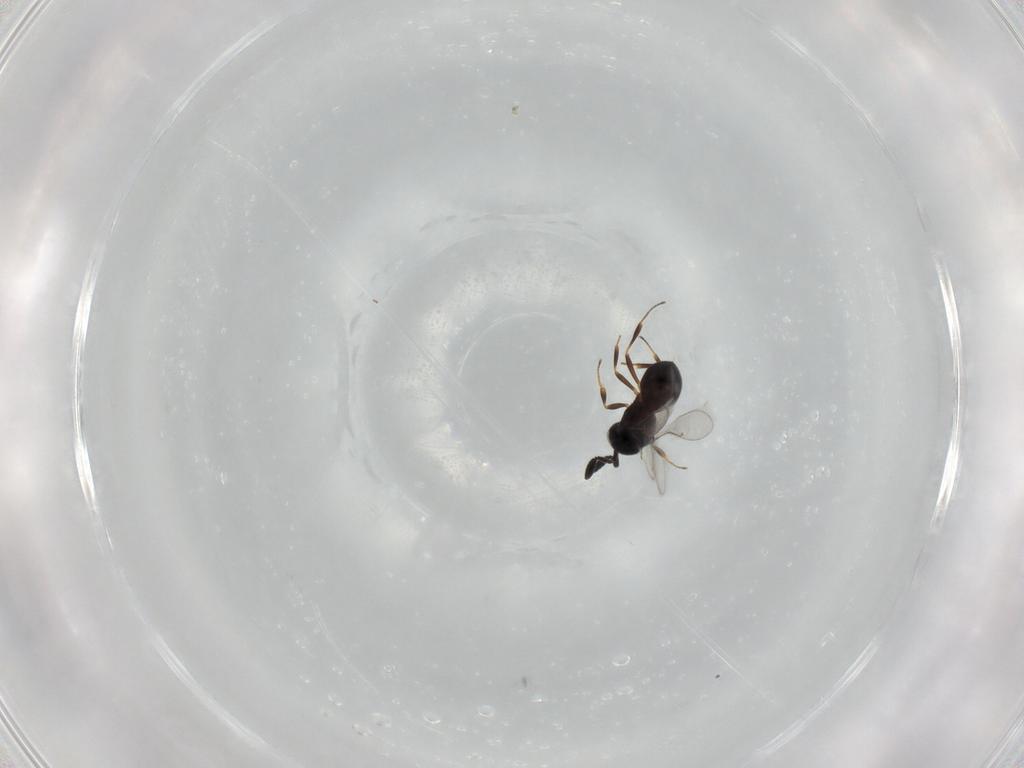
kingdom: Animalia
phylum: Arthropoda
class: Insecta
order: Hymenoptera
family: Scelionidae
